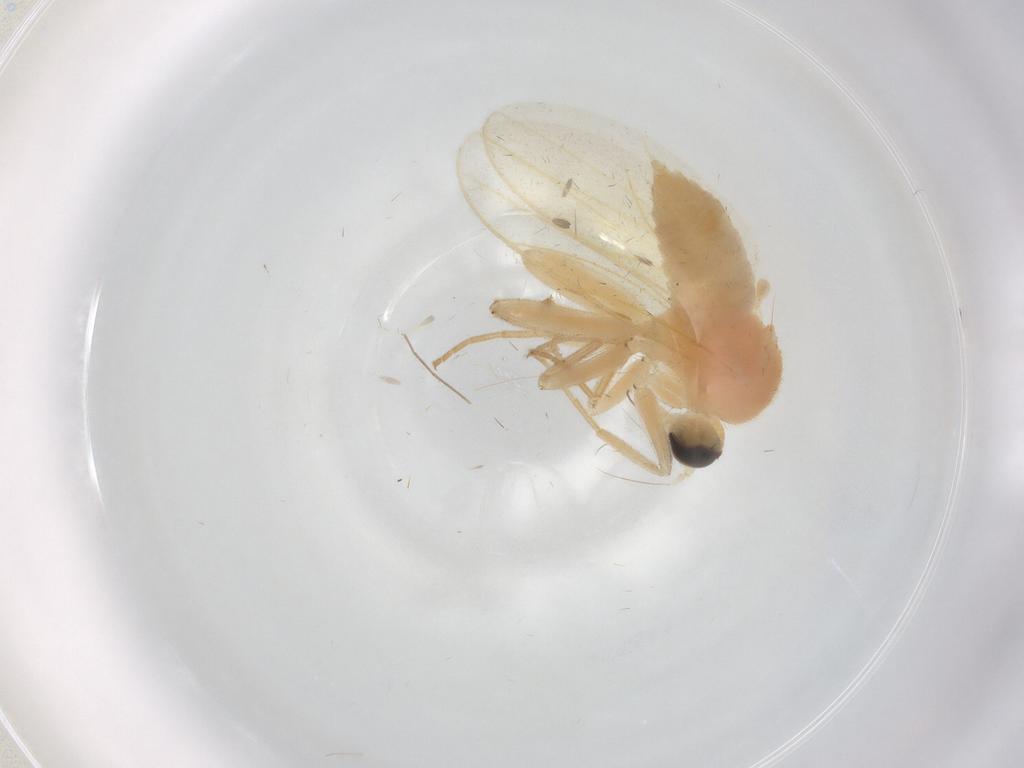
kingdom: Animalia
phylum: Arthropoda
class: Insecta
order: Diptera
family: Hybotidae
